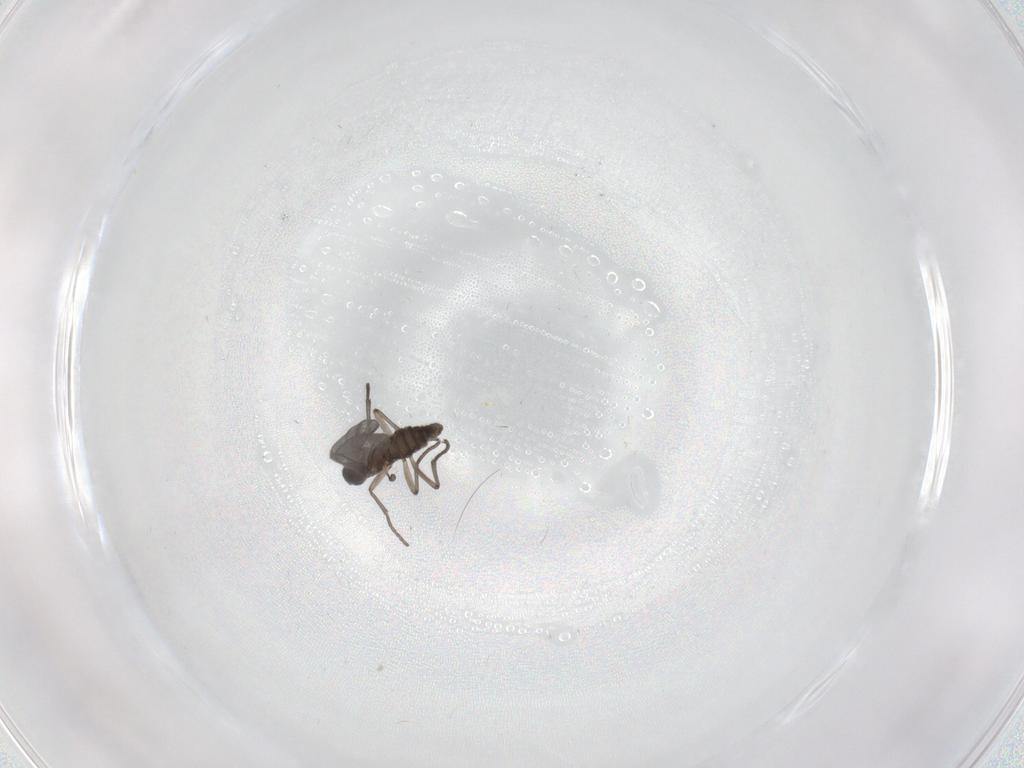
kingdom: Animalia
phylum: Arthropoda
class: Insecta
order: Diptera
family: Sciaridae
